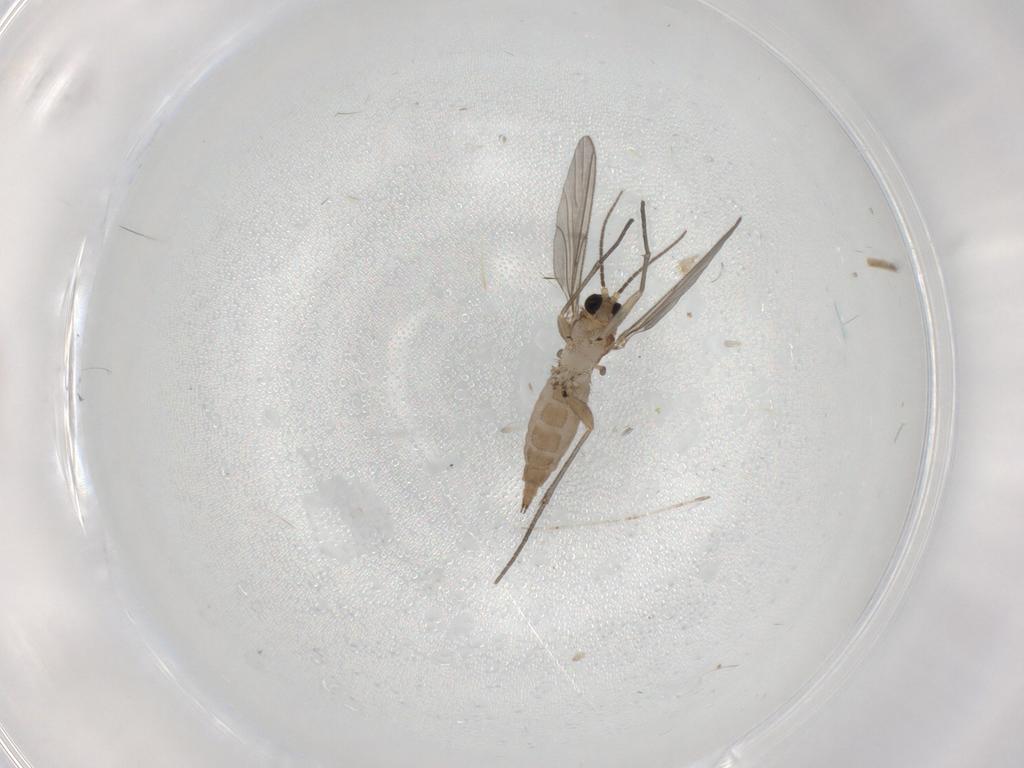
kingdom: Animalia
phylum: Arthropoda
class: Insecta
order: Diptera
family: Sciaridae
